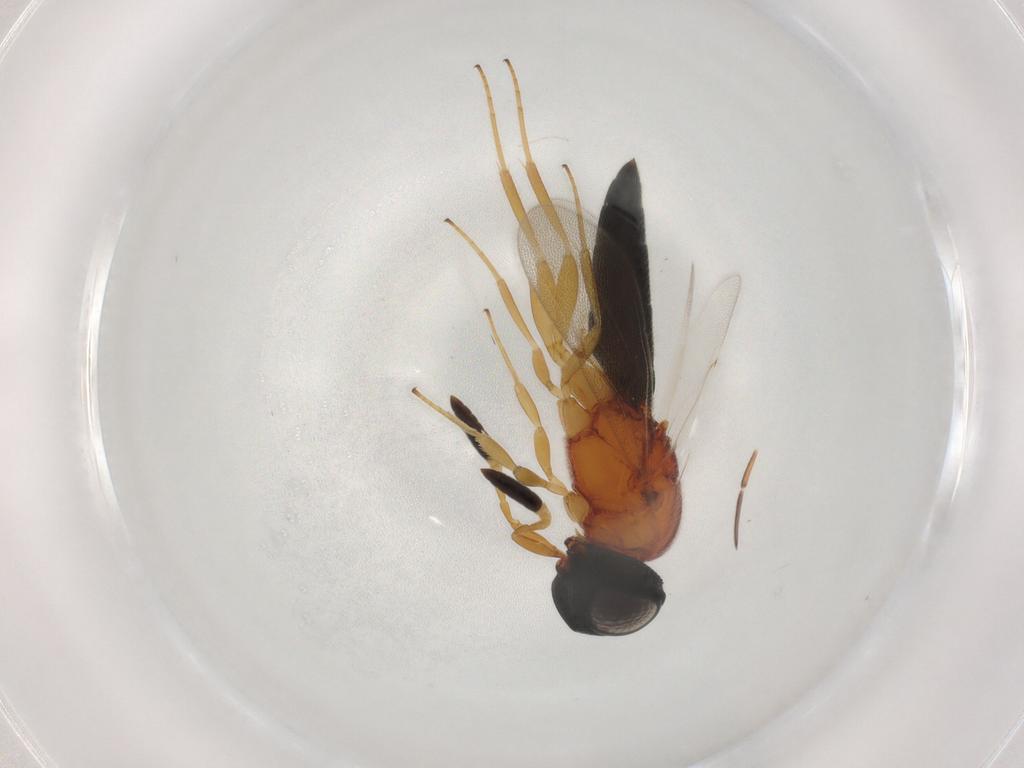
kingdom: Animalia
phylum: Arthropoda
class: Insecta
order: Hymenoptera
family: Scelionidae
